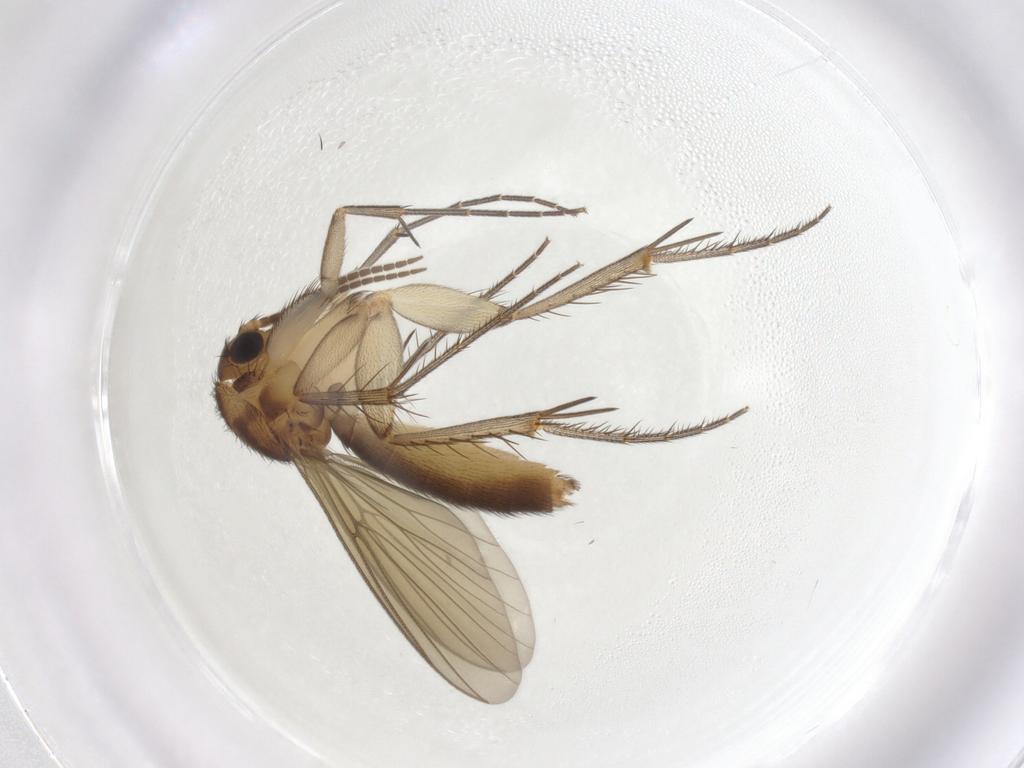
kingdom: Animalia
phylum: Arthropoda
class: Insecta
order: Diptera
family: Mycetophilidae
